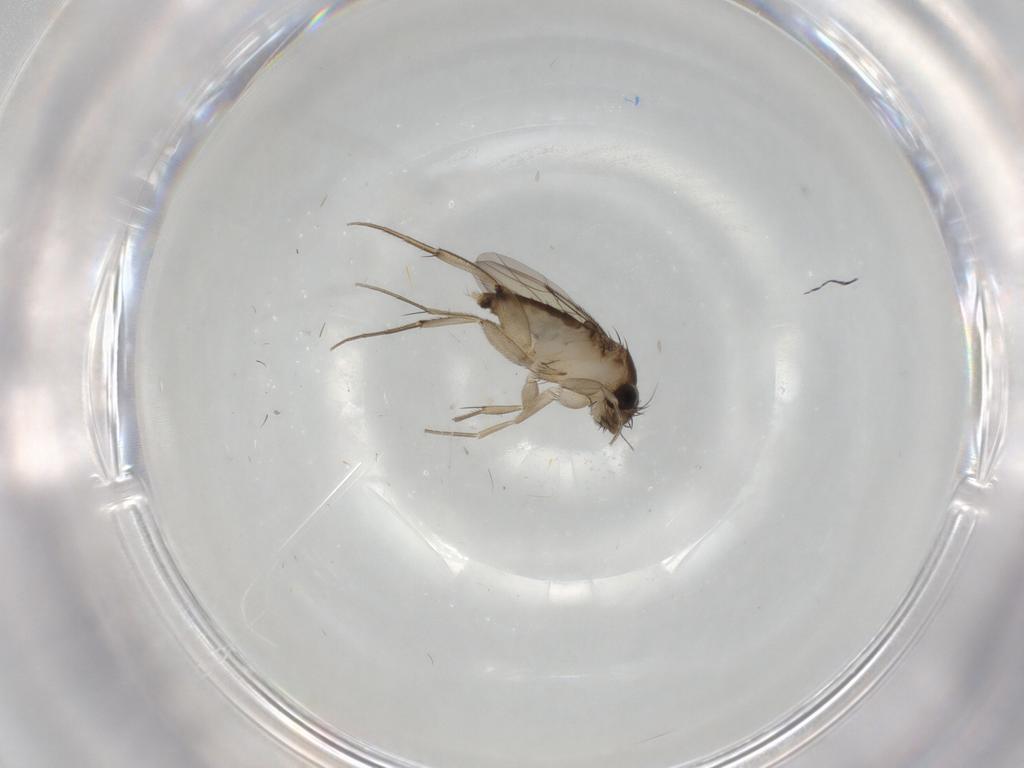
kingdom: Animalia
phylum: Arthropoda
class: Insecta
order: Diptera
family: Phoridae
